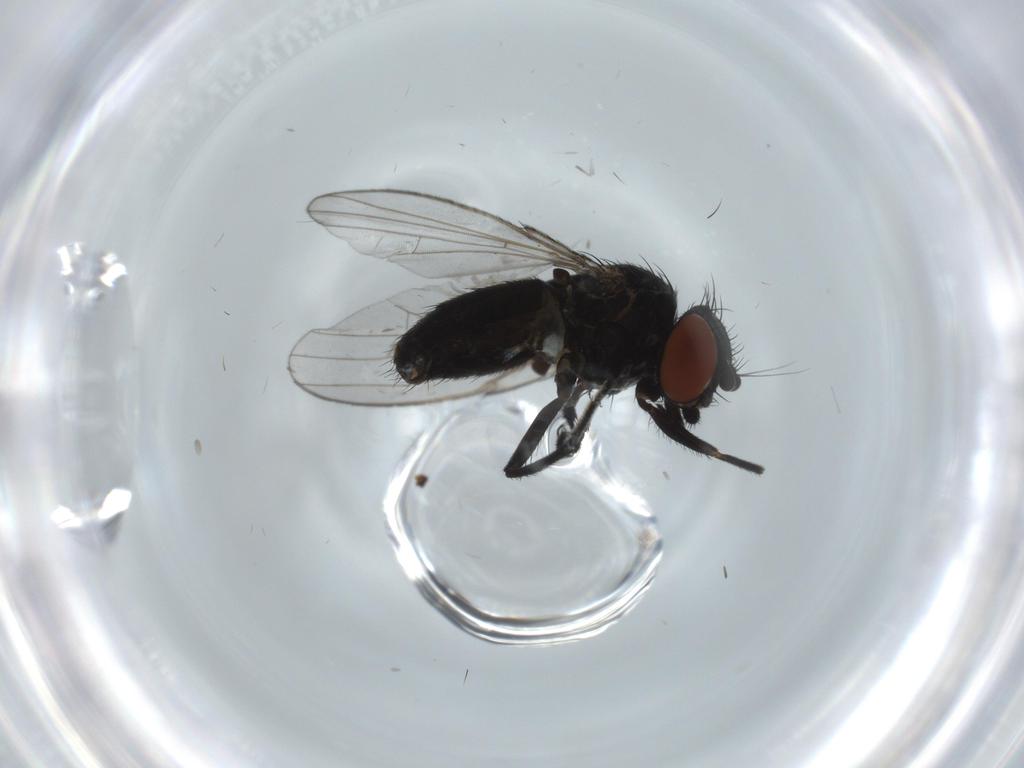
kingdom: Animalia
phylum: Arthropoda
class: Insecta
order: Diptera
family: Milichiidae
